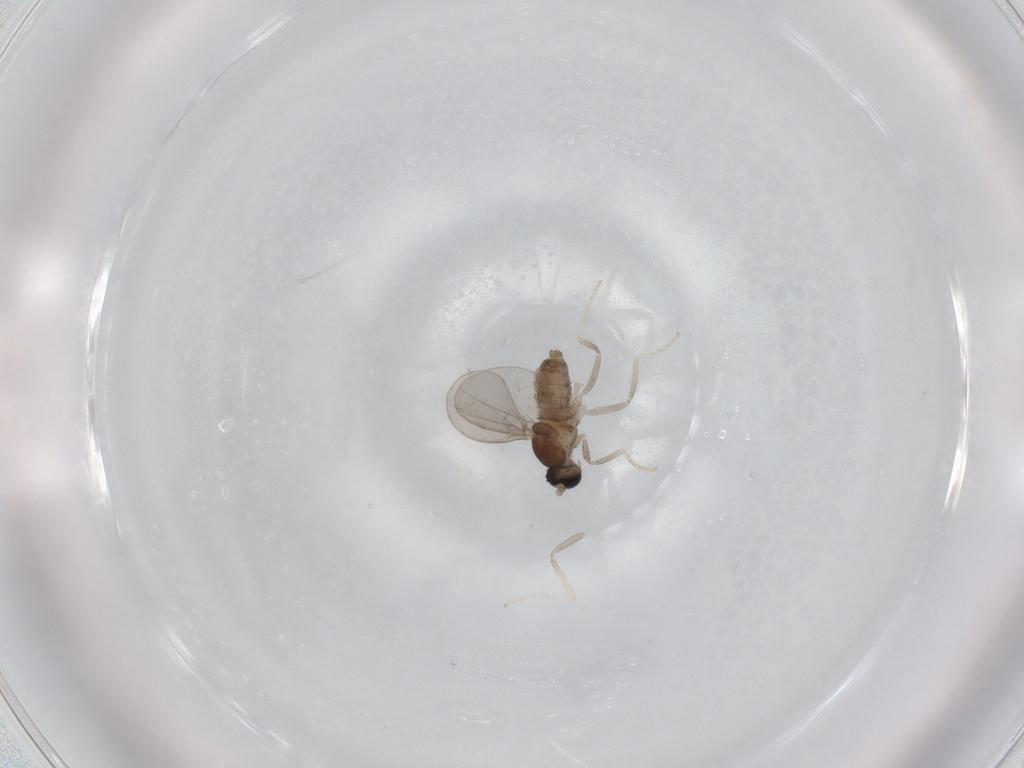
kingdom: Animalia
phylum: Arthropoda
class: Insecta
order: Diptera
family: Cecidomyiidae
